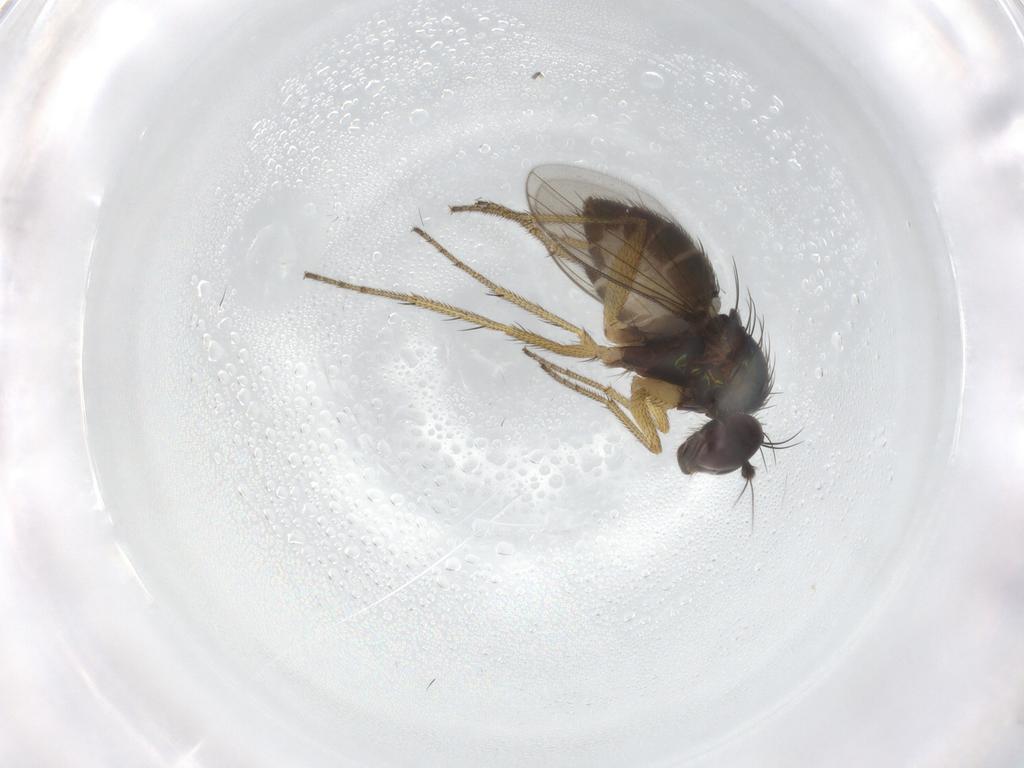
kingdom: Animalia
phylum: Arthropoda
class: Insecta
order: Diptera
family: Dolichopodidae
